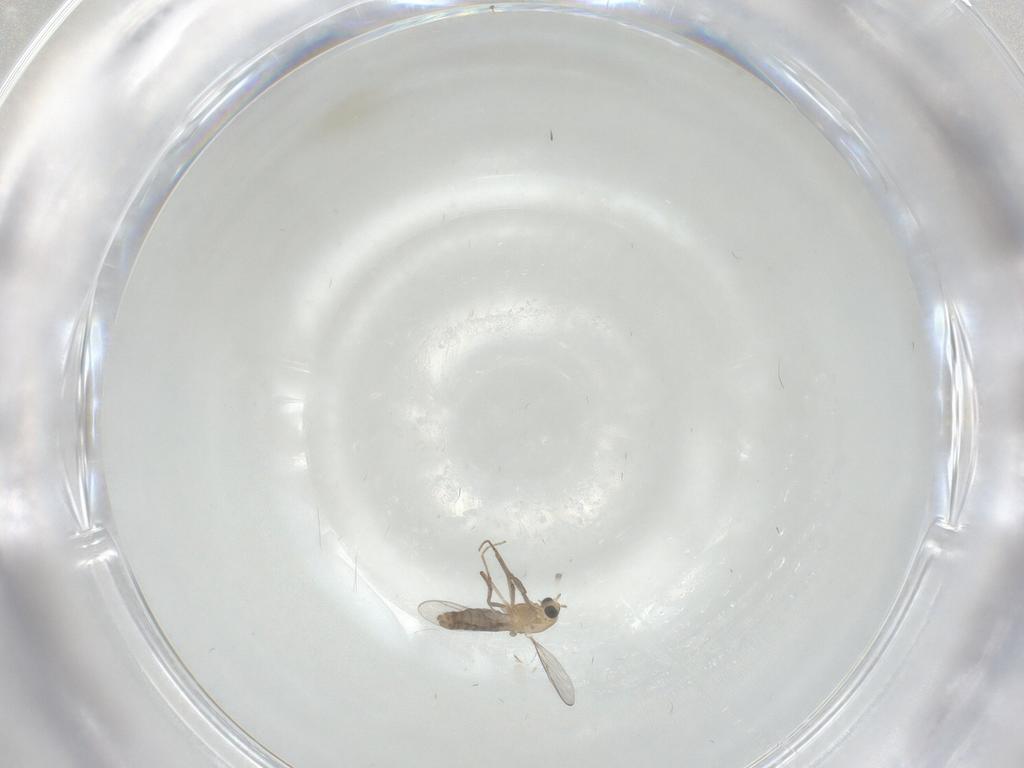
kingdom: Animalia
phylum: Arthropoda
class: Insecta
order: Diptera
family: Chironomidae
